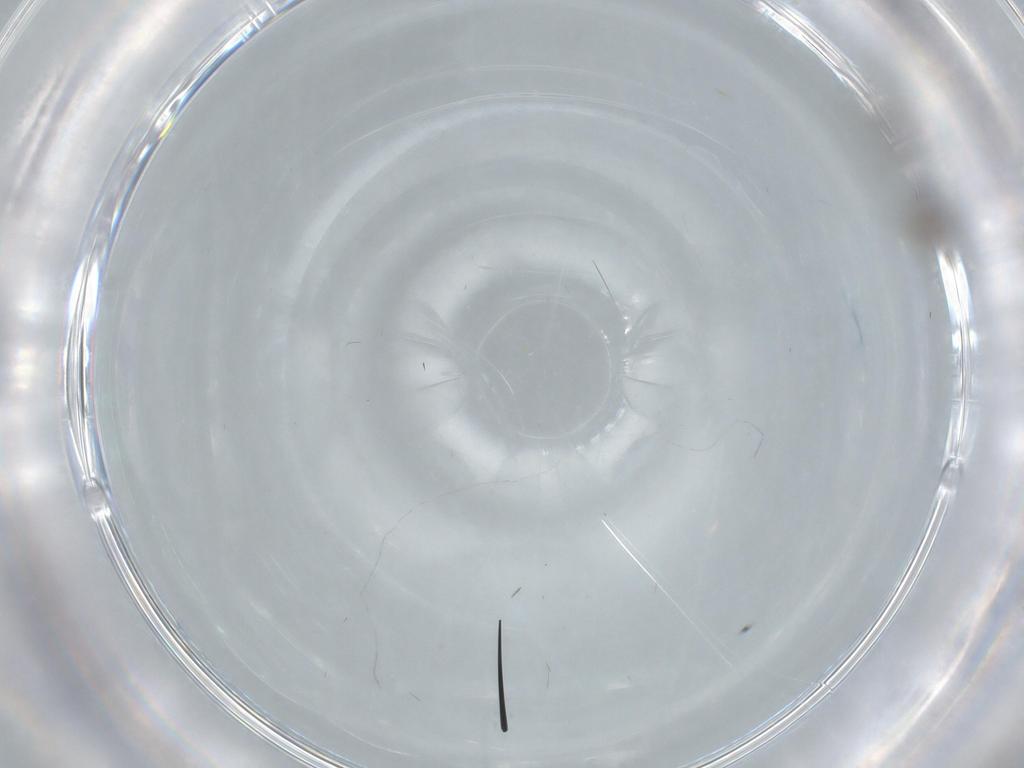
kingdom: Animalia
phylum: Arthropoda
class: Insecta
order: Diptera
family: Cecidomyiidae
